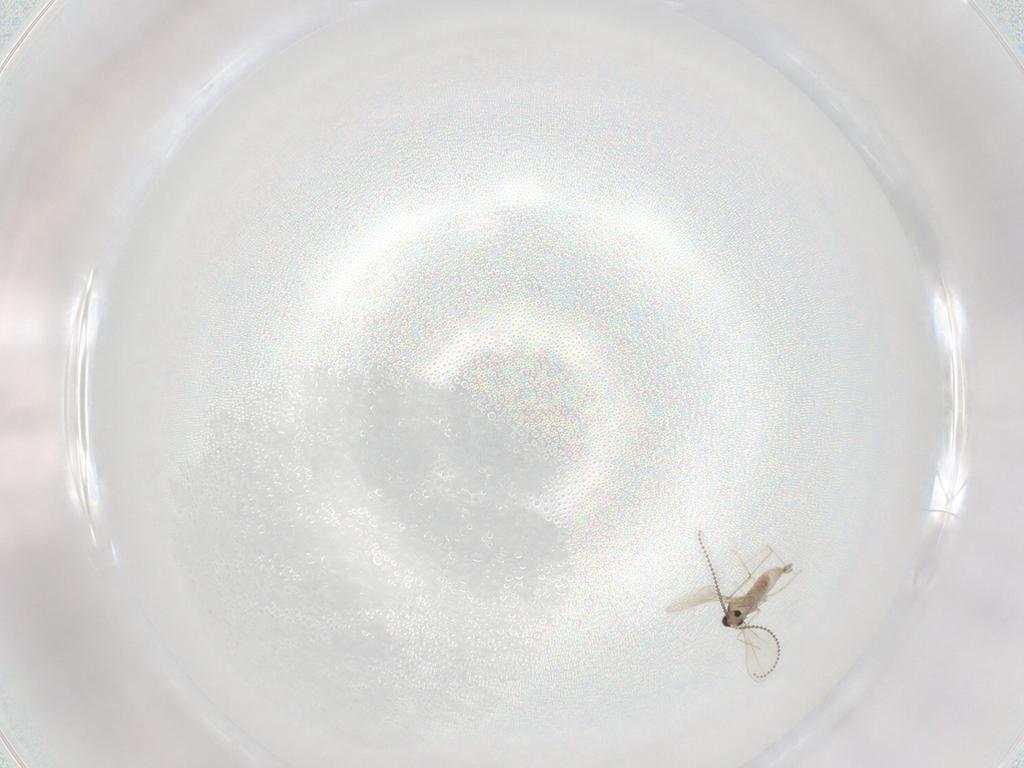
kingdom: Animalia
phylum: Arthropoda
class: Insecta
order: Diptera
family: Cecidomyiidae
